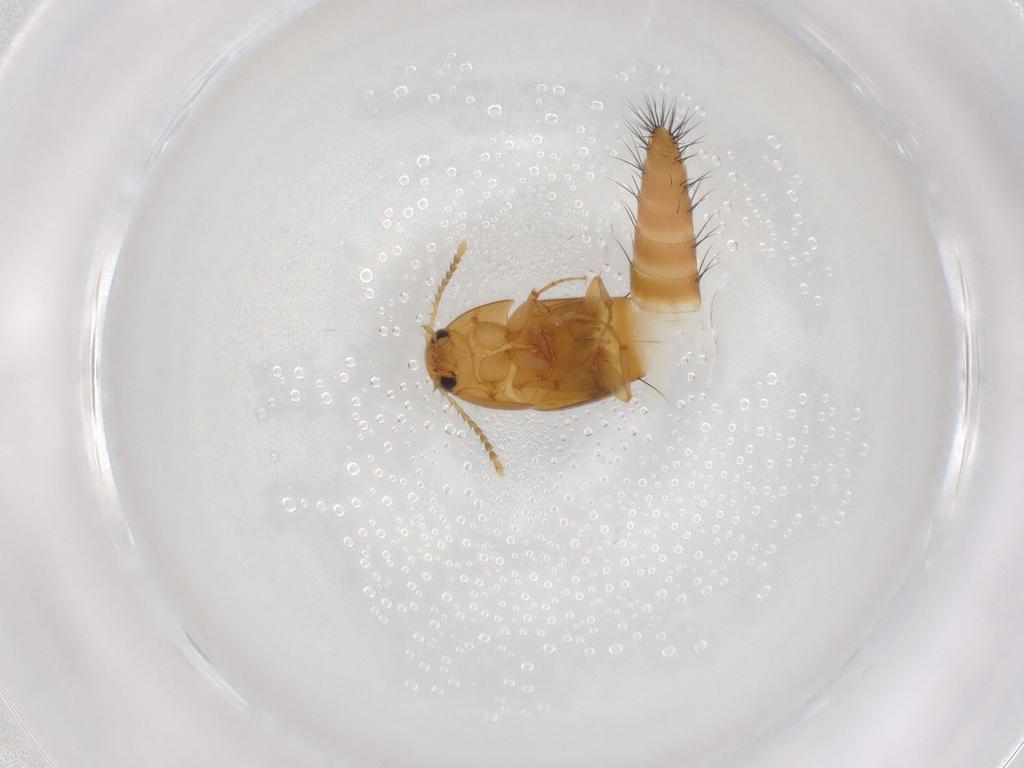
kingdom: Animalia
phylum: Arthropoda
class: Insecta
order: Coleoptera
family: Staphylinidae
